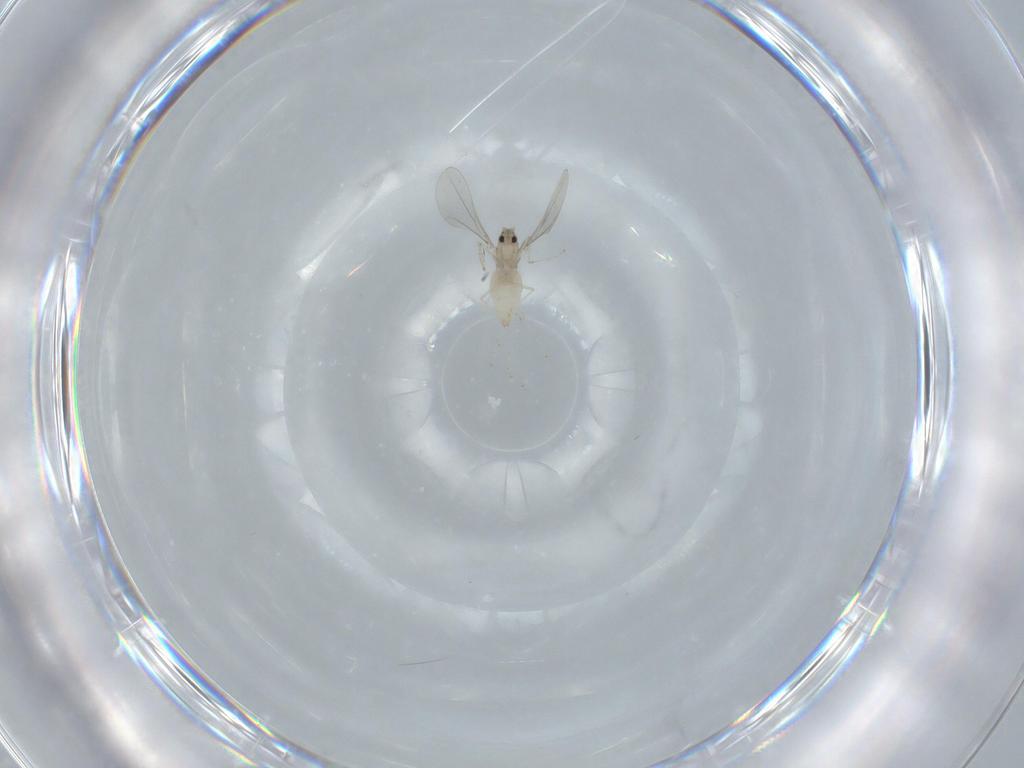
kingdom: Animalia
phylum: Arthropoda
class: Insecta
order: Diptera
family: Cecidomyiidae
